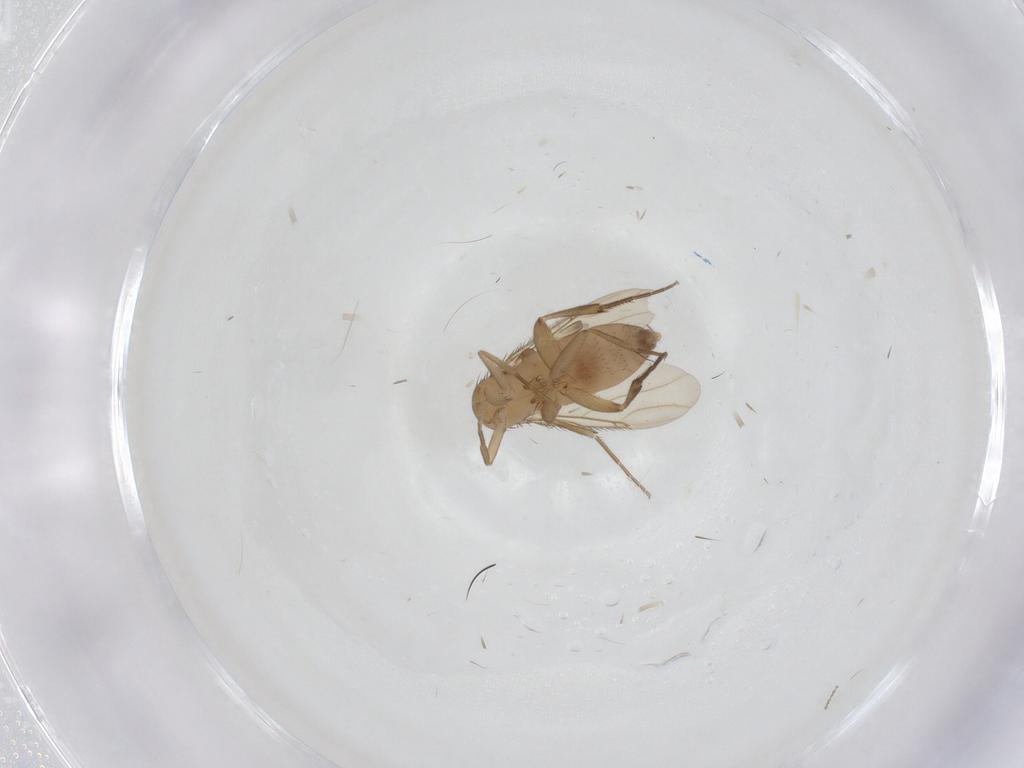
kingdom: Animalia
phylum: Arthropoda
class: Insecta
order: Diptera
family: Phoridae
